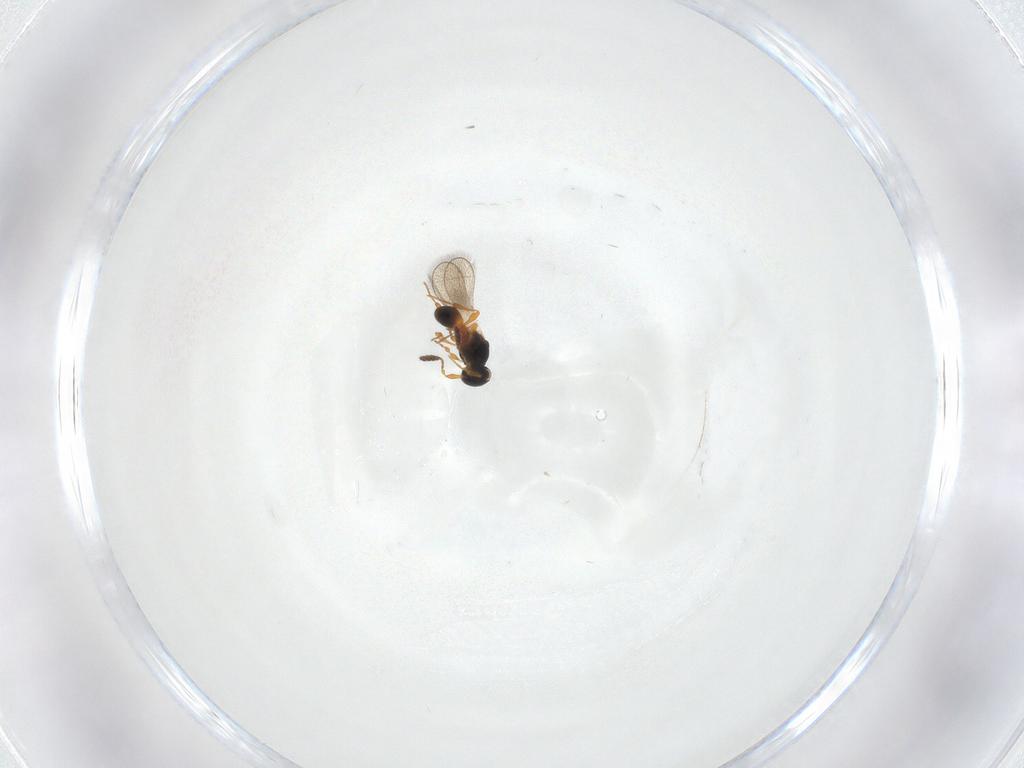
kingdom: Animalia
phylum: Arthropoda
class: Insecta
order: Hymenoptera
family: Platygastridae
